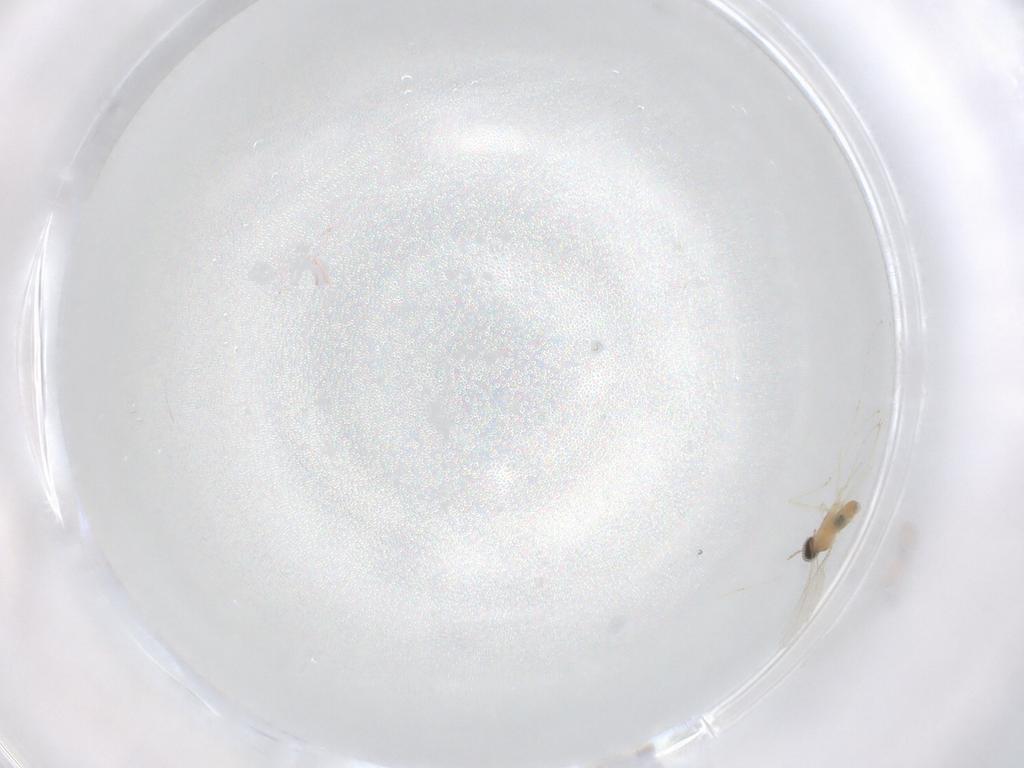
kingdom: Animalia
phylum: Arthropoda
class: Insecta
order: Diptera
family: Cecidomyiidae
